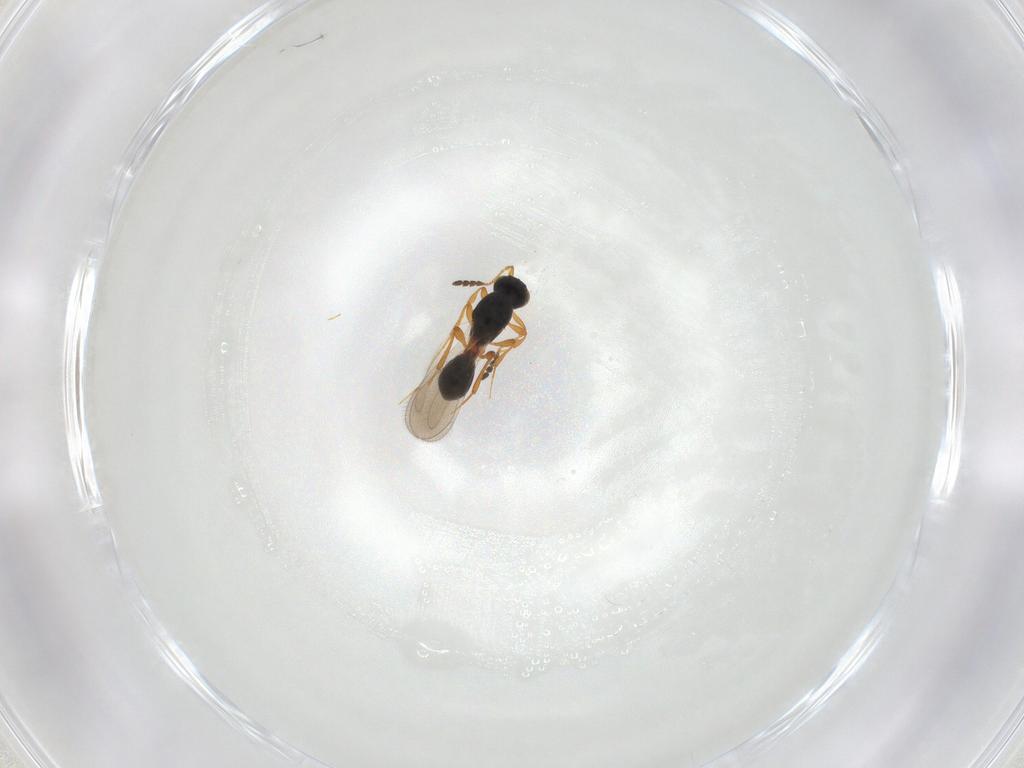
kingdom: Animalia
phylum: Arthropoda
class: Insecta
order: Hymenoptera
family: Platygastridae
